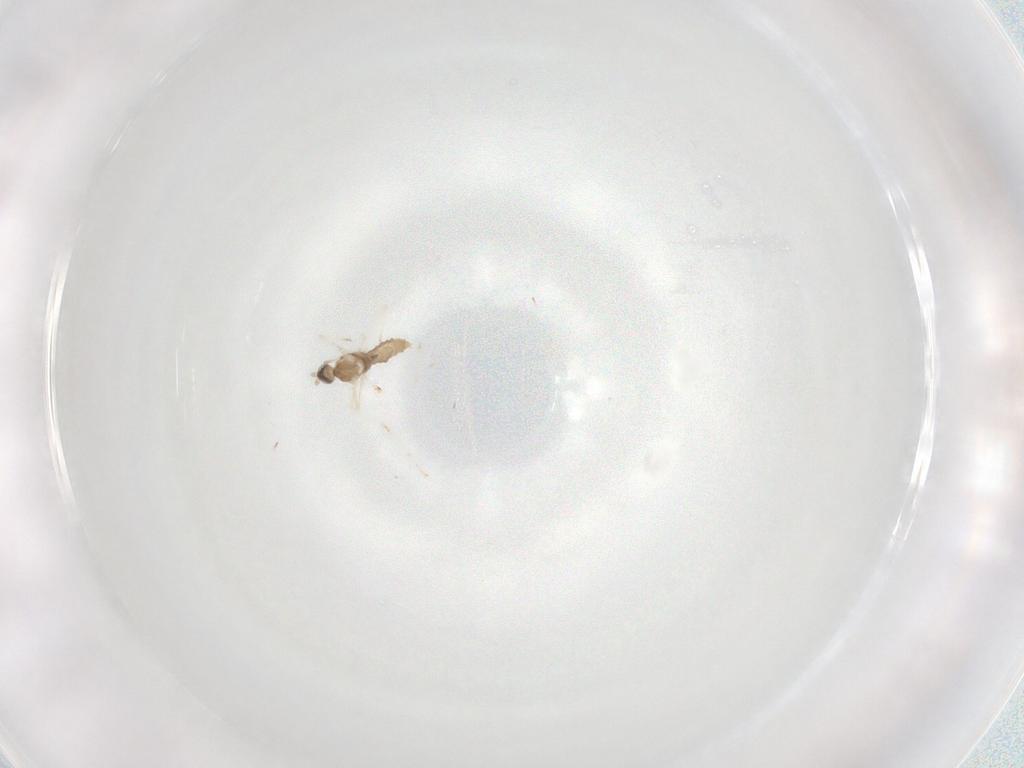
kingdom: Animalia
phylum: Arthropoda
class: Insecta
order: Diptera
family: Cecidomyiidae
